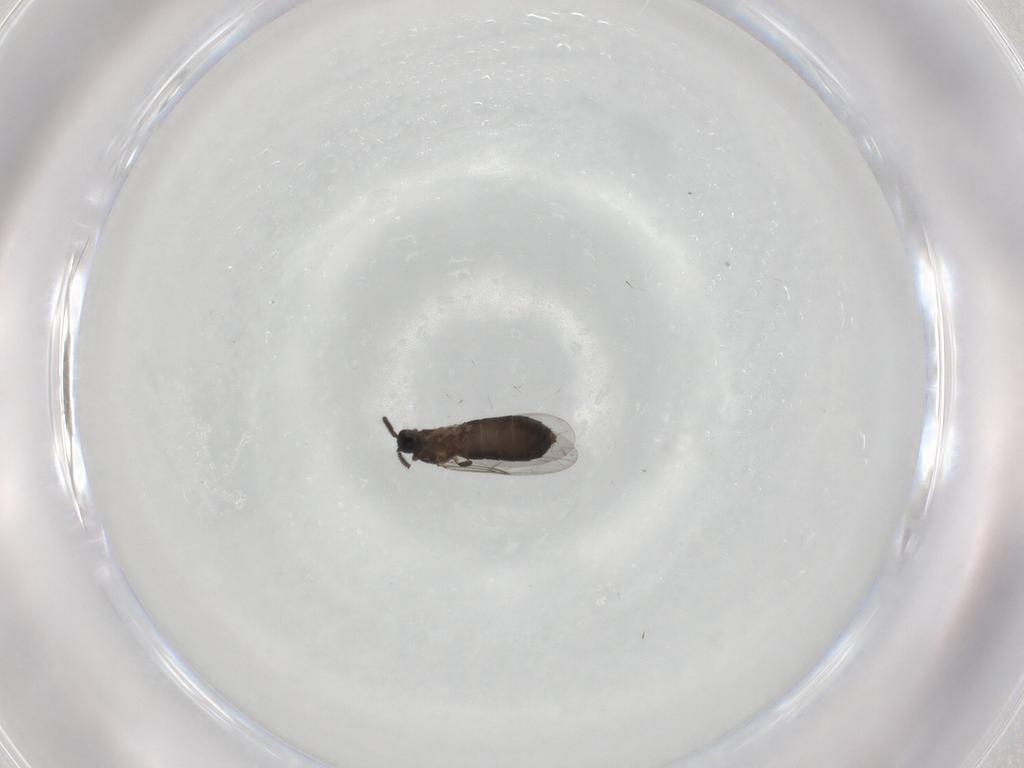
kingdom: Animalia
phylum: Arthropoda
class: Insecta
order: Diptera
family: Scatopsidae
